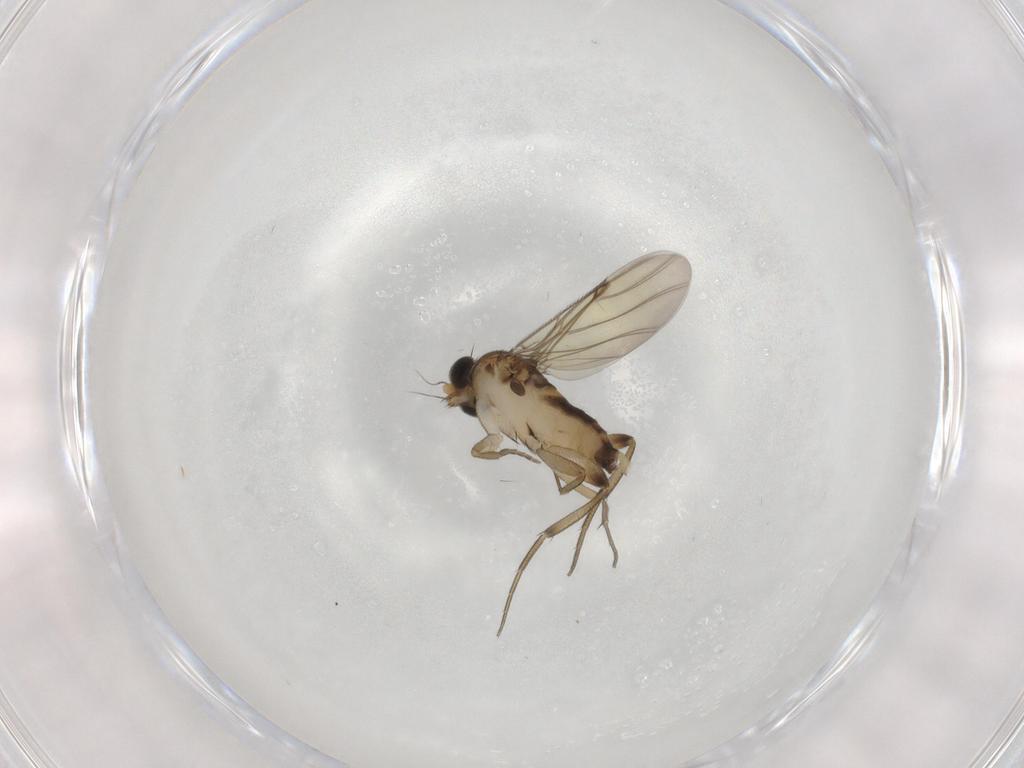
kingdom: Animalia
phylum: Arthropoda
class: Insecta
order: Diptera
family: Phoridae
